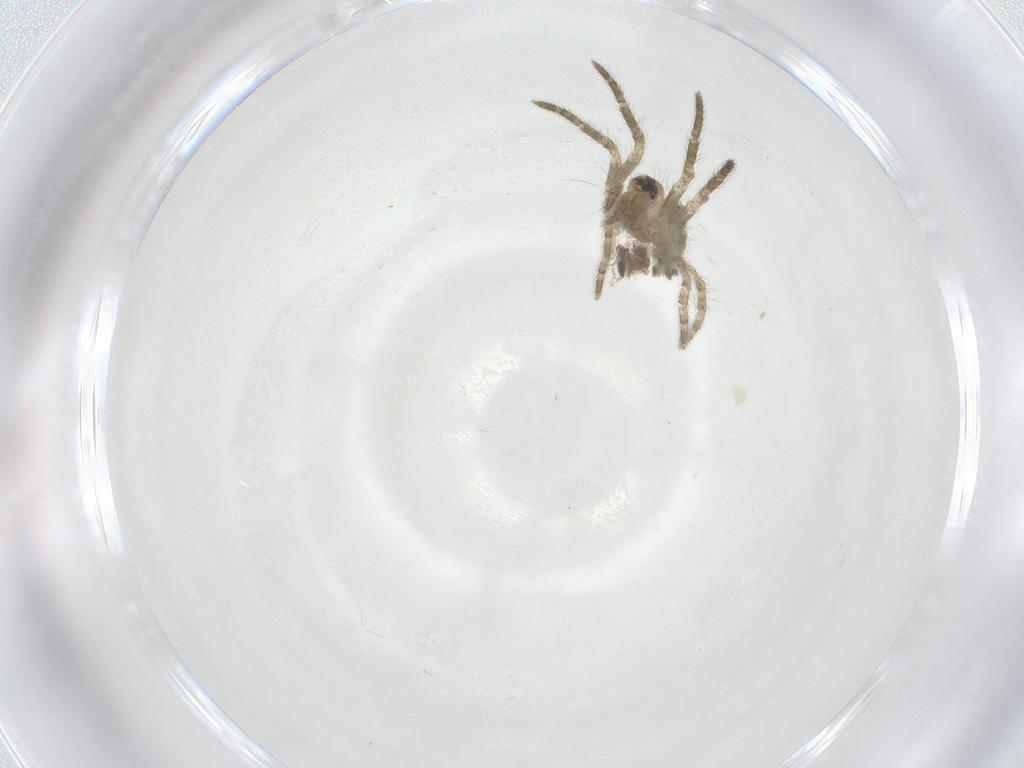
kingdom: Animalia
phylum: Arthropoda
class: Arachnida
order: Araneae
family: Araneidae
